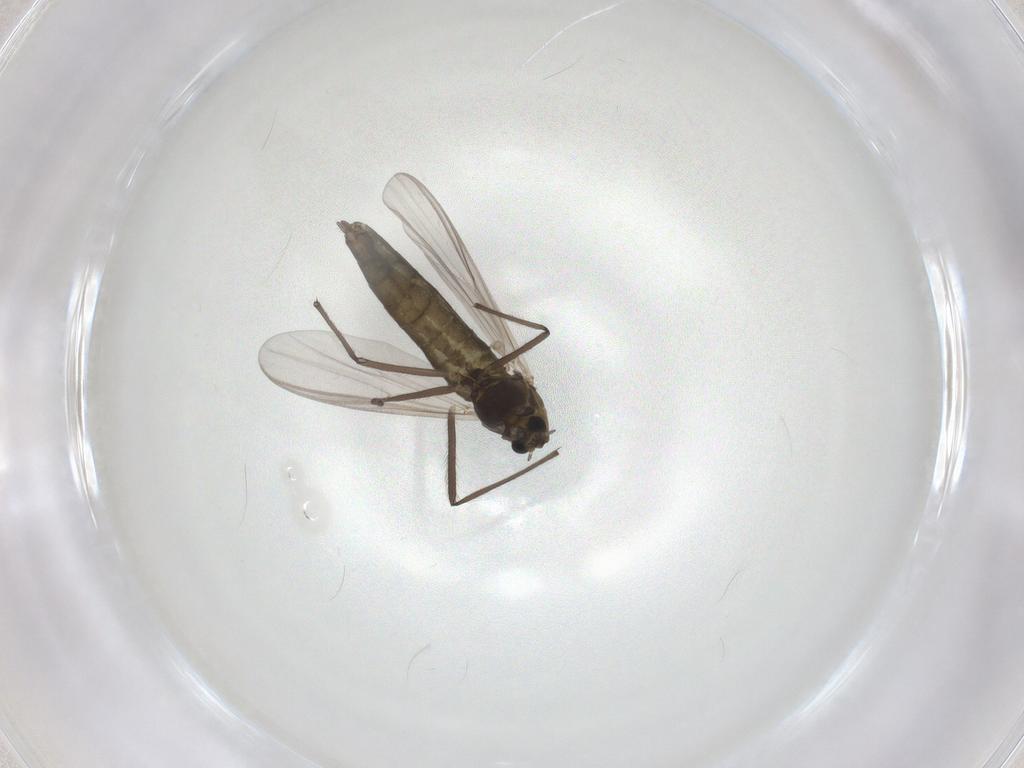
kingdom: Animalia
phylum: Arthropoda
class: Insecta
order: Diptera
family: Chironomidae
